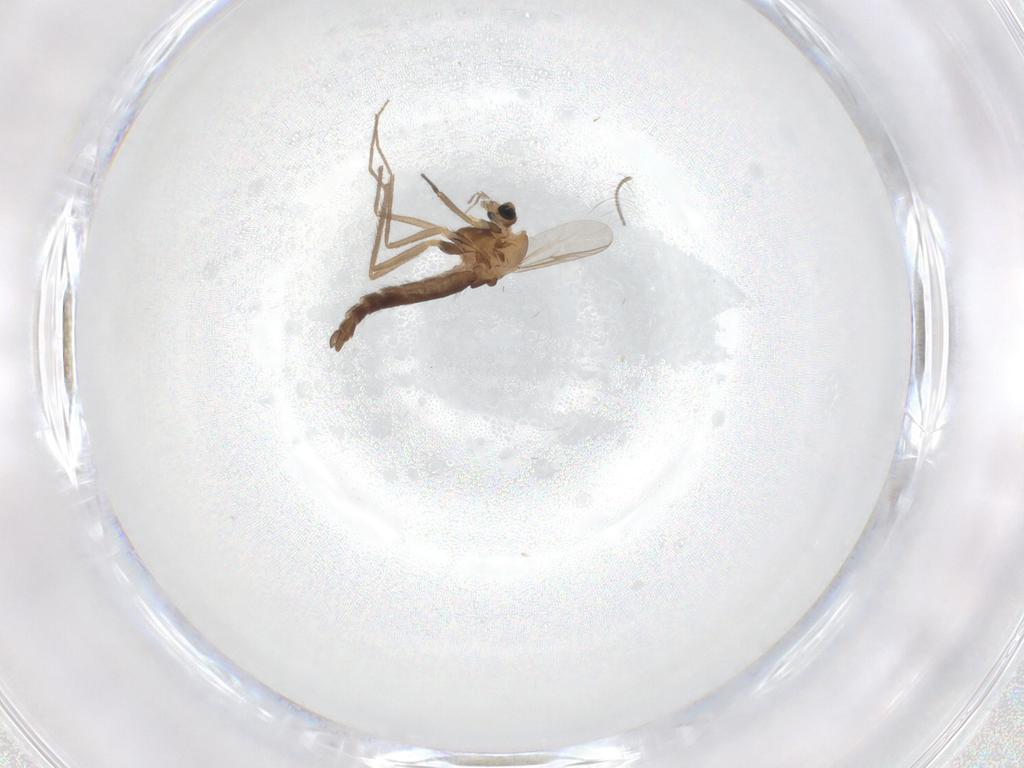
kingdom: Animalia
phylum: Arthropoda
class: Insecta
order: Diptera
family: Chironomidae
